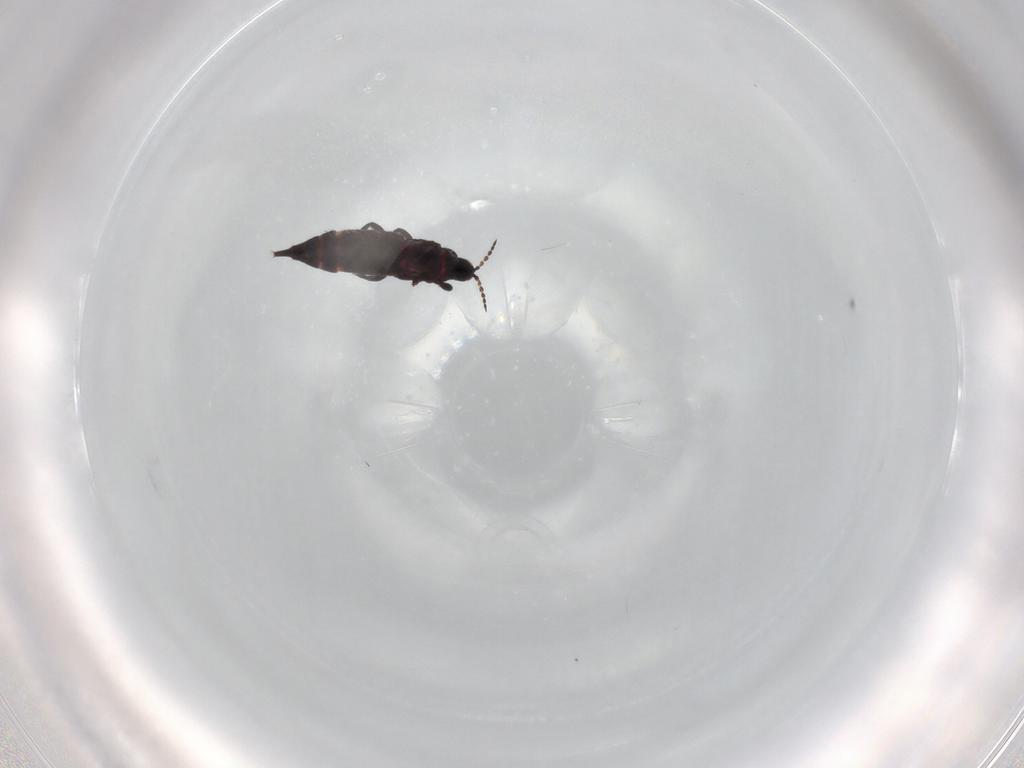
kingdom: Animalia
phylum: Arthropoda
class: Insecta
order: Thysanoptera
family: Phlaeothripidae
